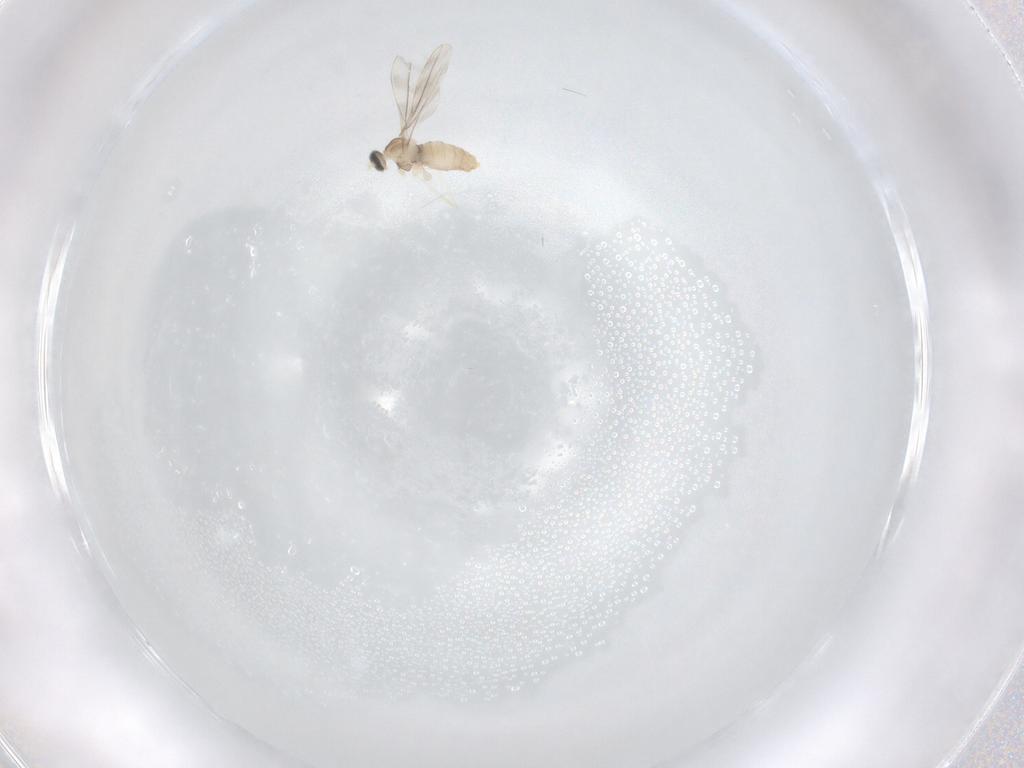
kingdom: Animalia
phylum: Arthropoda
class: Insecta
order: Diptera
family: Cecidomyiidae
